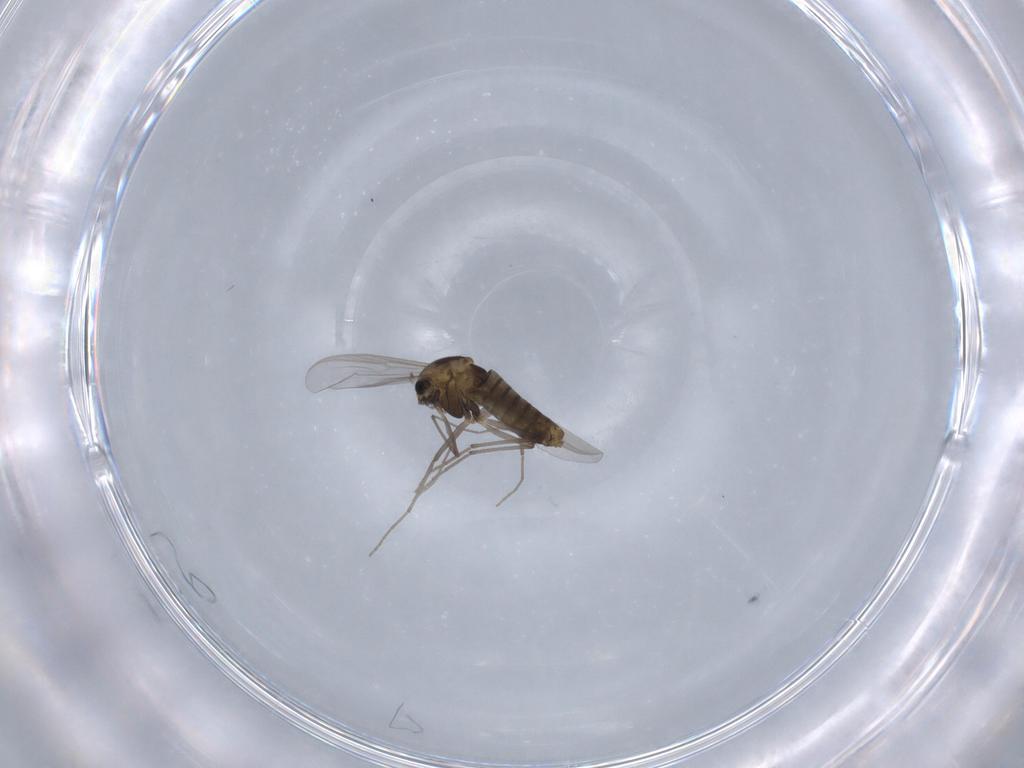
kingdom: Animalia
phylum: Arthropoda
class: Insecta
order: Diptera
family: Chironomidae
